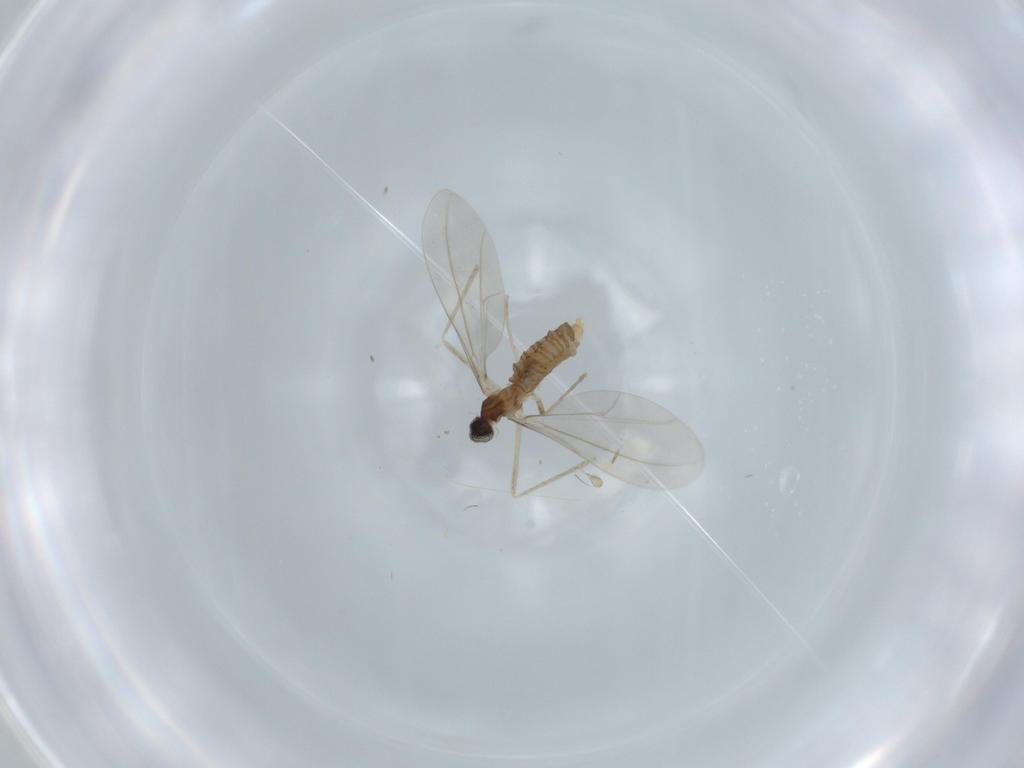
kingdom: Animalia
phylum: Arthropoda
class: Insecta
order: Diptera
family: Cecidomyiidae
